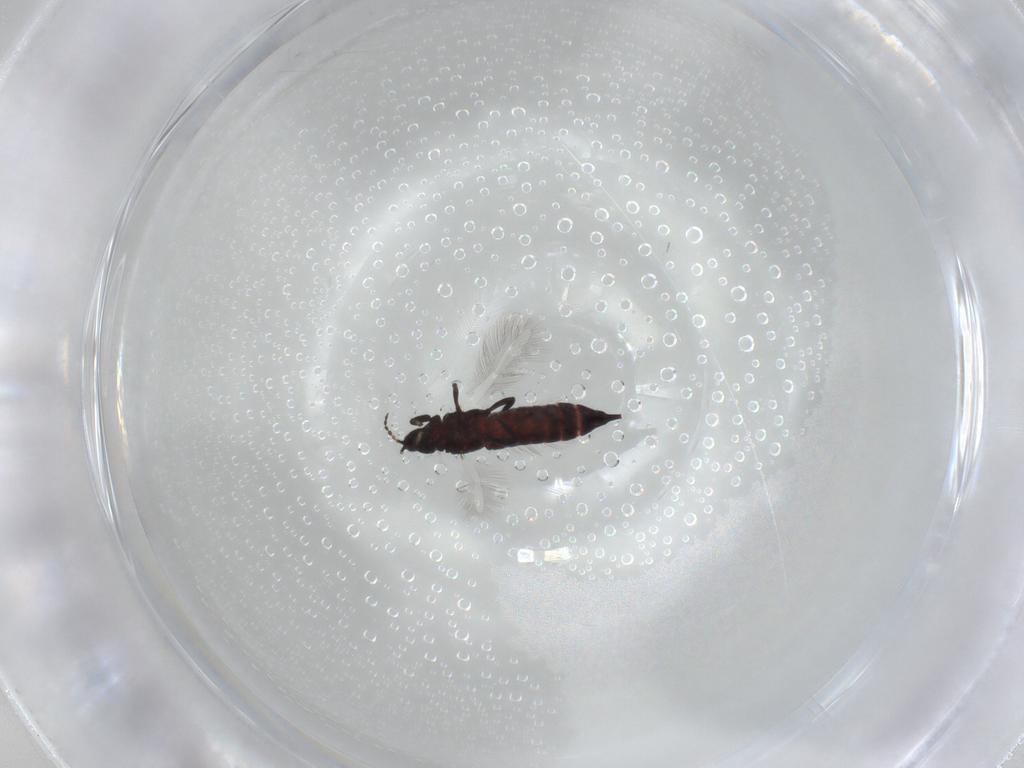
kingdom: Animalia
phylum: Arthropoda
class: Insecta
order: Thysanoptera
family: Phlaeothripidae
